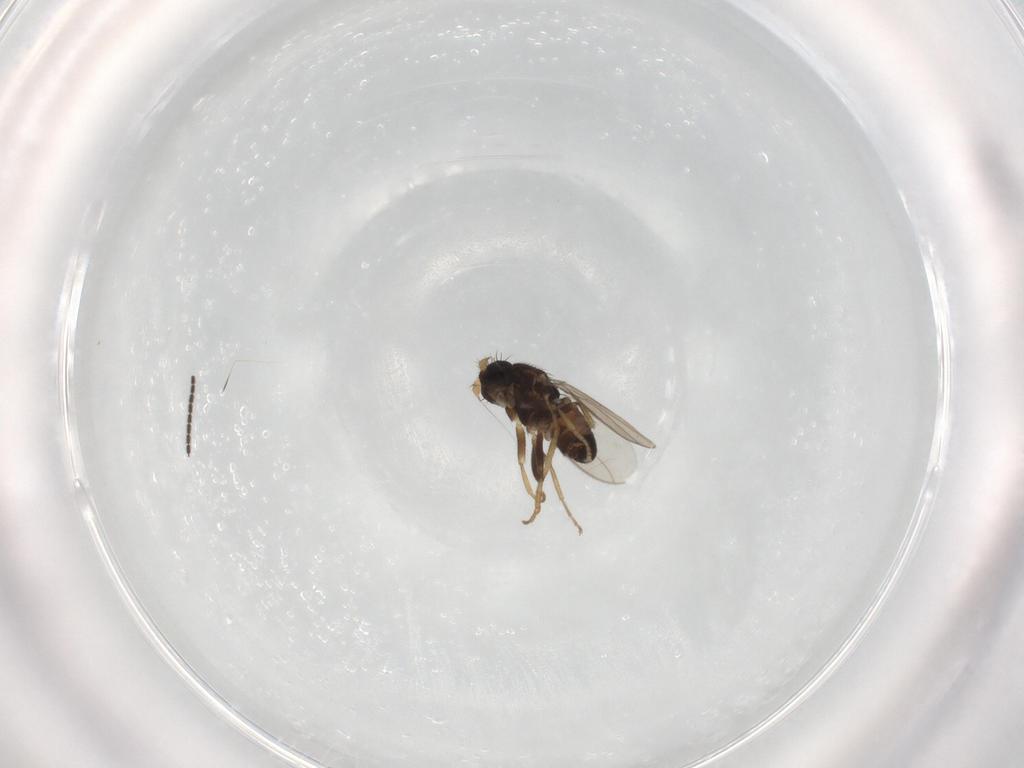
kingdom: Animalia
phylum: Arthropoda
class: Insecta
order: Diptera
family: Sciaridae
